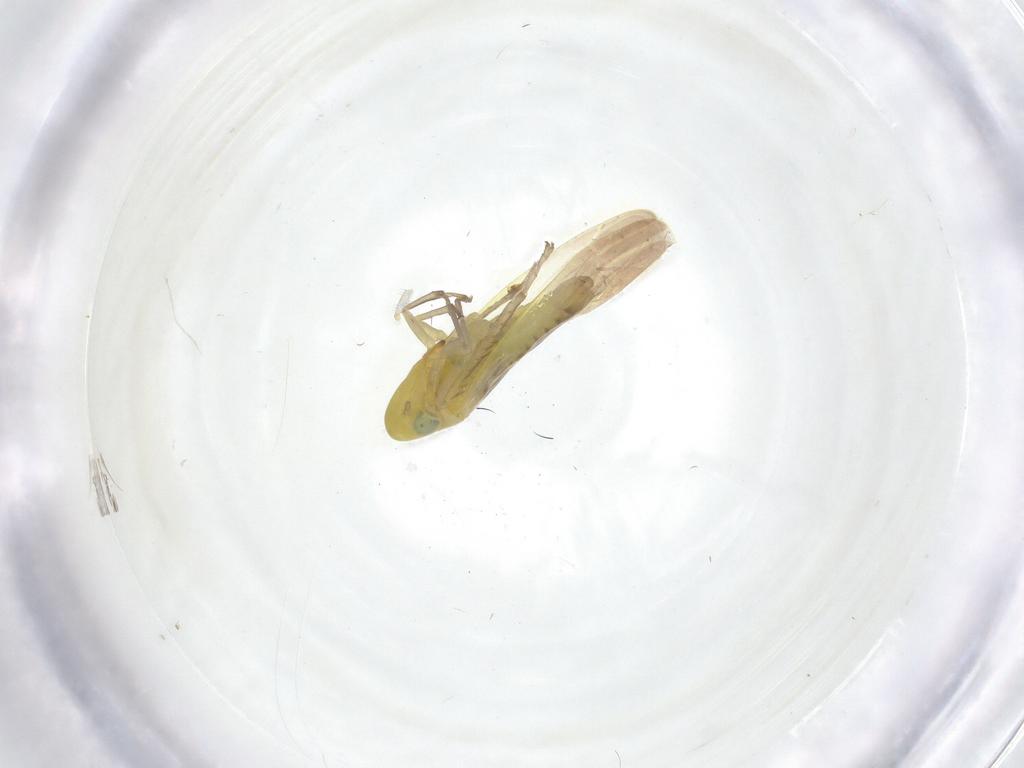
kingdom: Animalia
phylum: Arthropoda
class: Insecta
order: Hemiptera
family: Cicadellidae
